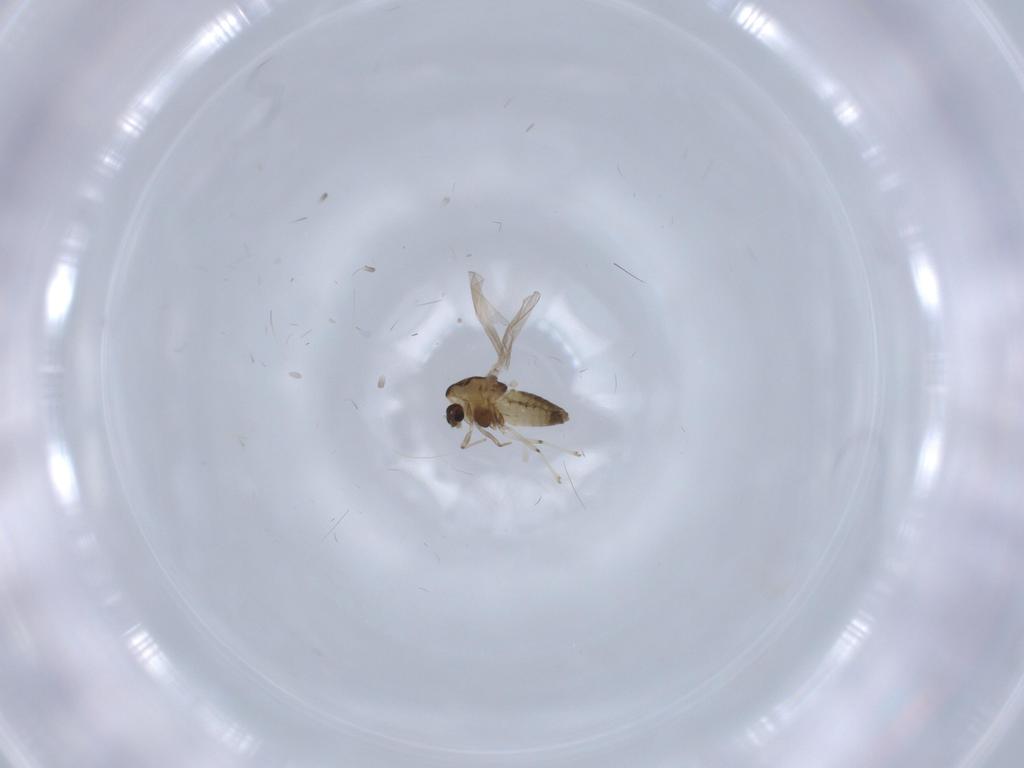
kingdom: Animalia
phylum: Arthropoda
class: Insecta
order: Diptera
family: Chironomidae
